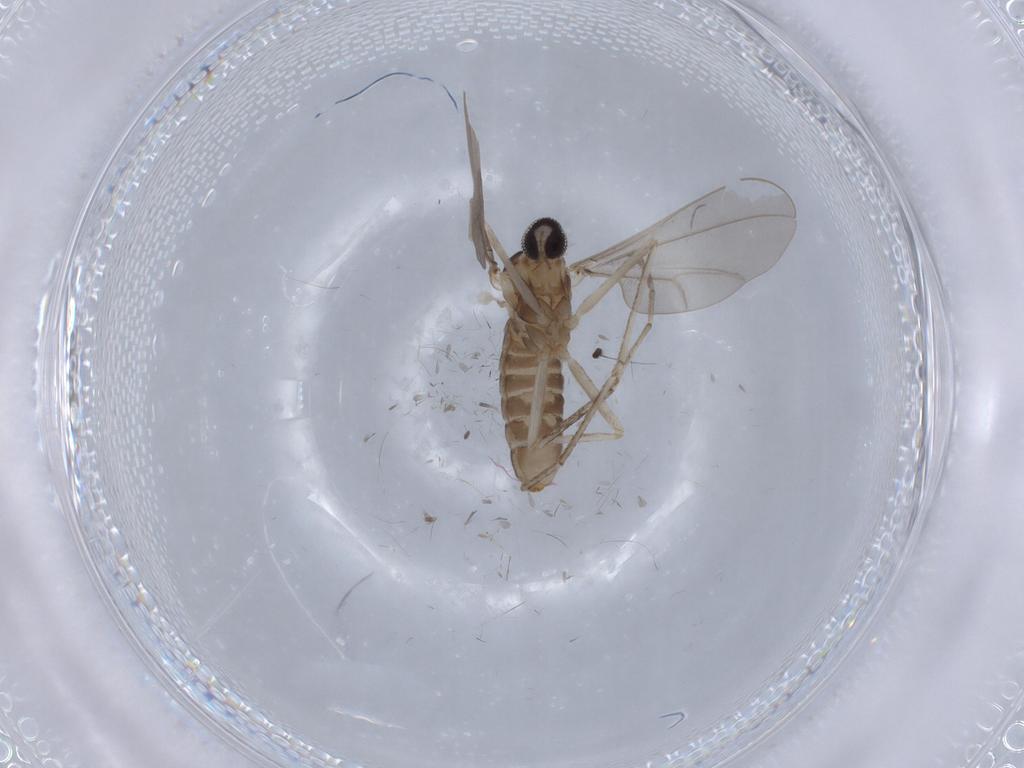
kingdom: Animalia
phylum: Arthropoda
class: Insecta
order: Diptera
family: Dolichopodidae
